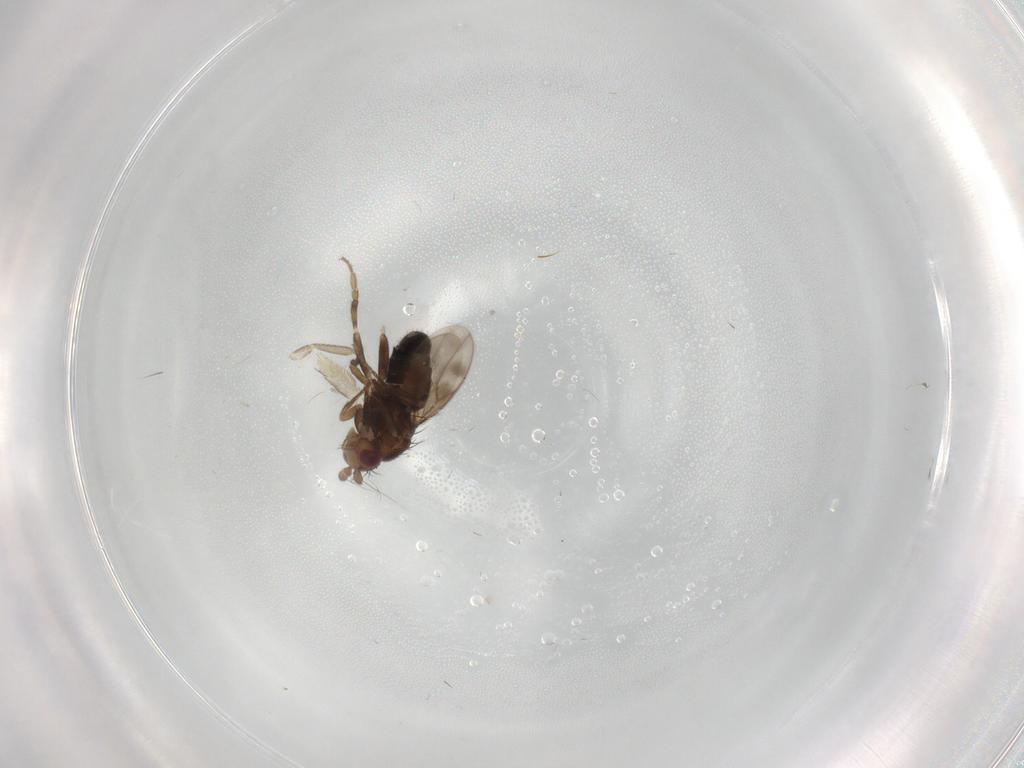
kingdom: Animalia
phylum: Arthropoda
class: Insecta
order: Diptera
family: Sphaeroceridae
